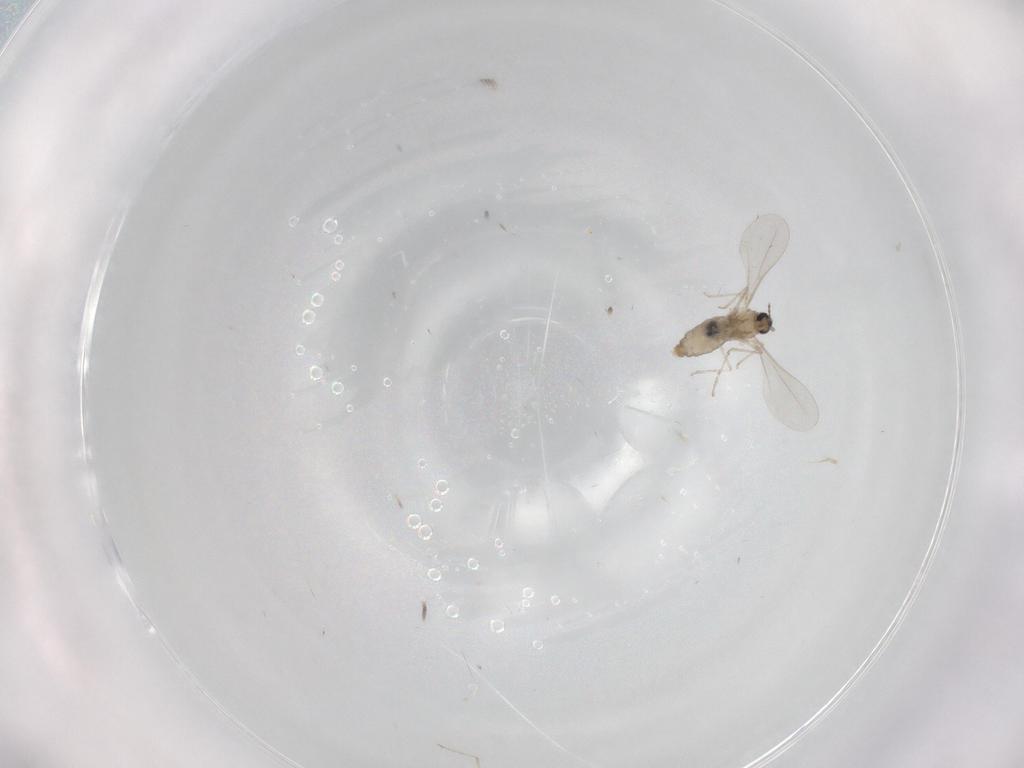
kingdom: Animalia
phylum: Arthropoda
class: Insecta
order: Diptera
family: Cecidomyiidae
